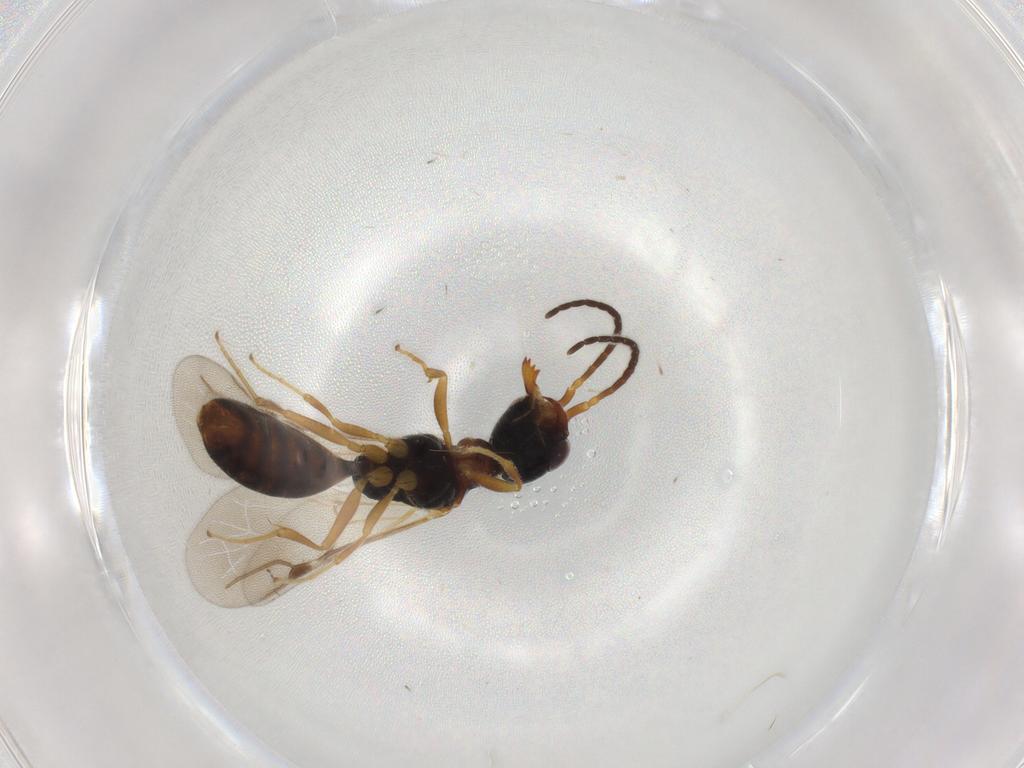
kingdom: Animalia
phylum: Arthropoda
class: Insecta
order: Hymenoptera
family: Bethylidae
